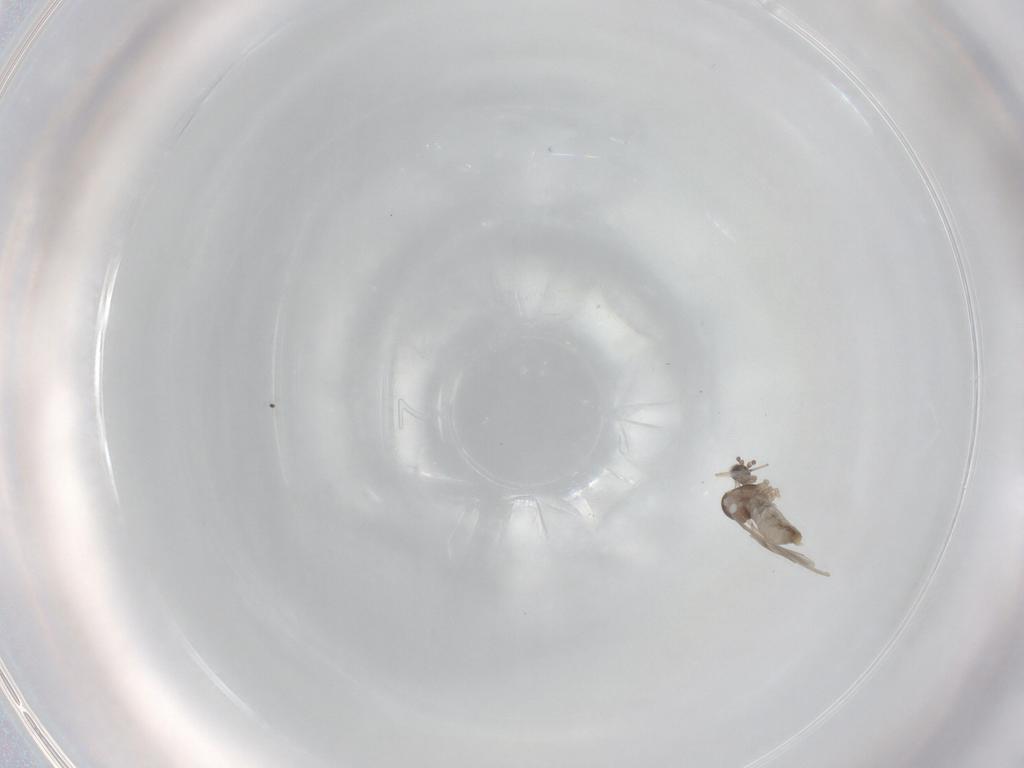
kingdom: Animalia
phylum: Arthropoda
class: Insecta
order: Diptera
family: Cecidomyiidae
